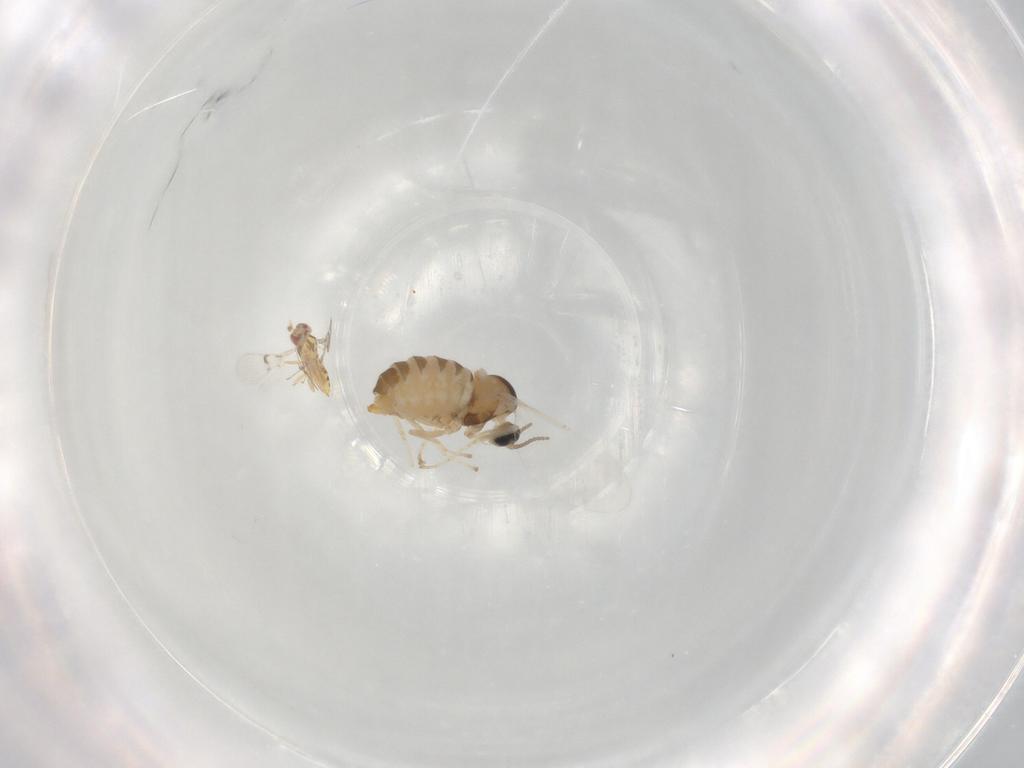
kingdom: Animalia
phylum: Arthropoda
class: Insecta
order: Diptera
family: Cecidomyiidae
